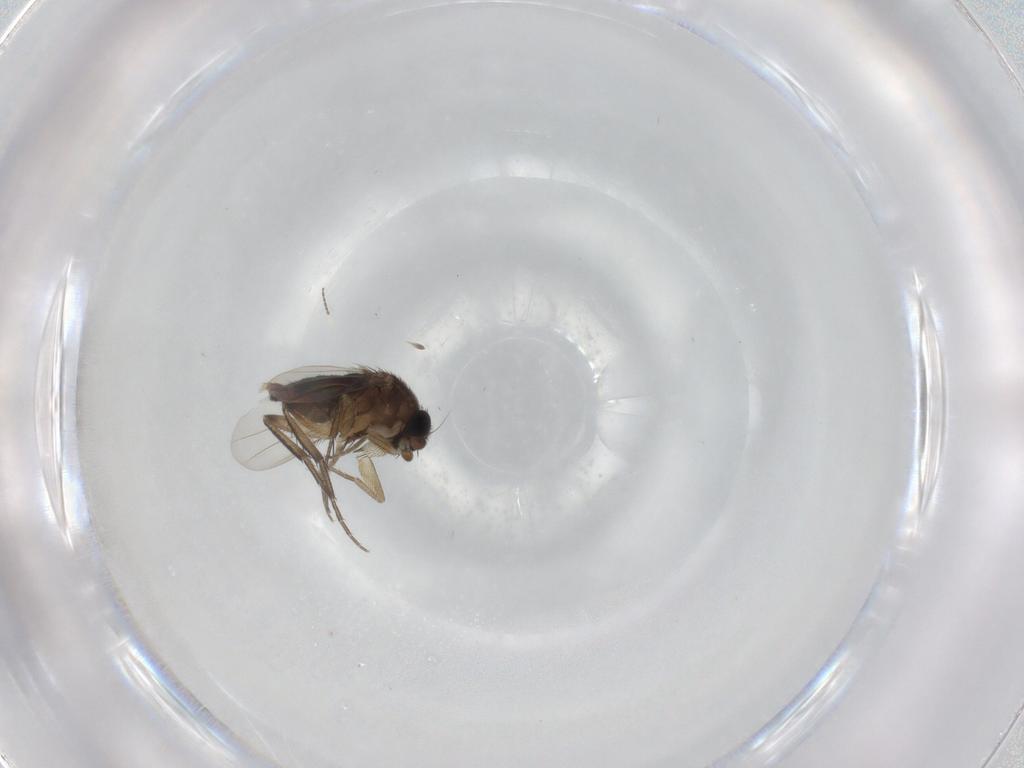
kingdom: Animalia
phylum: Arthropoda
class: Insecta
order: Diptera
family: Phoridae
